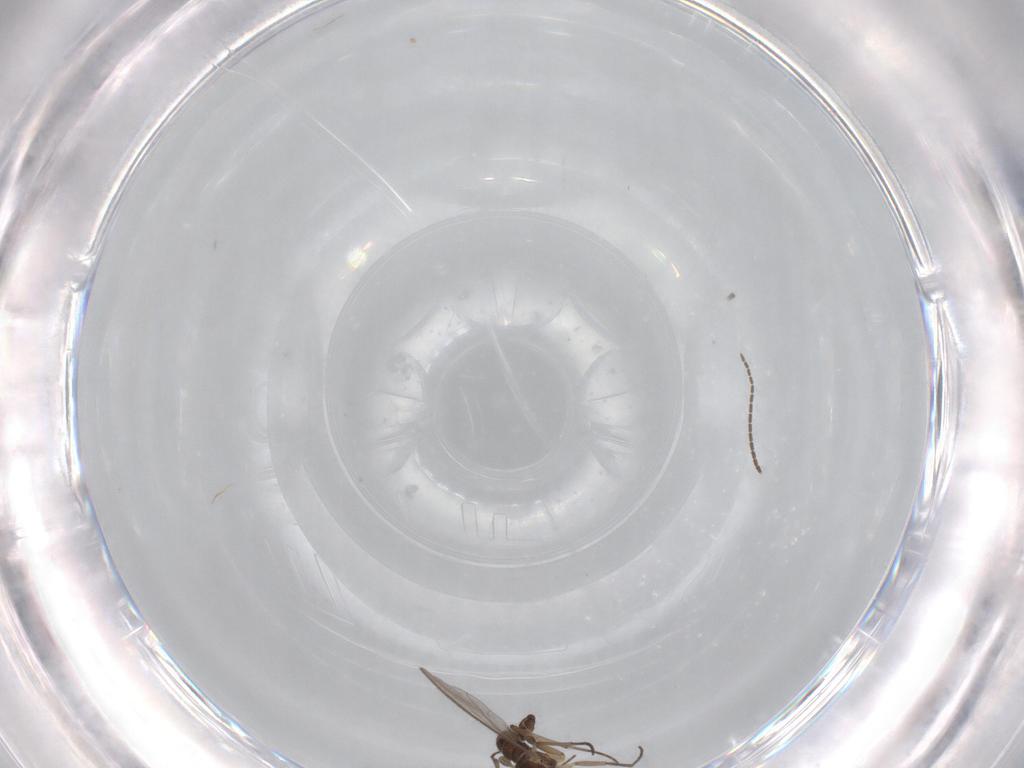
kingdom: Animalia
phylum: Arthropoda
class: Insecta
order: Diptera
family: Sciaridae
